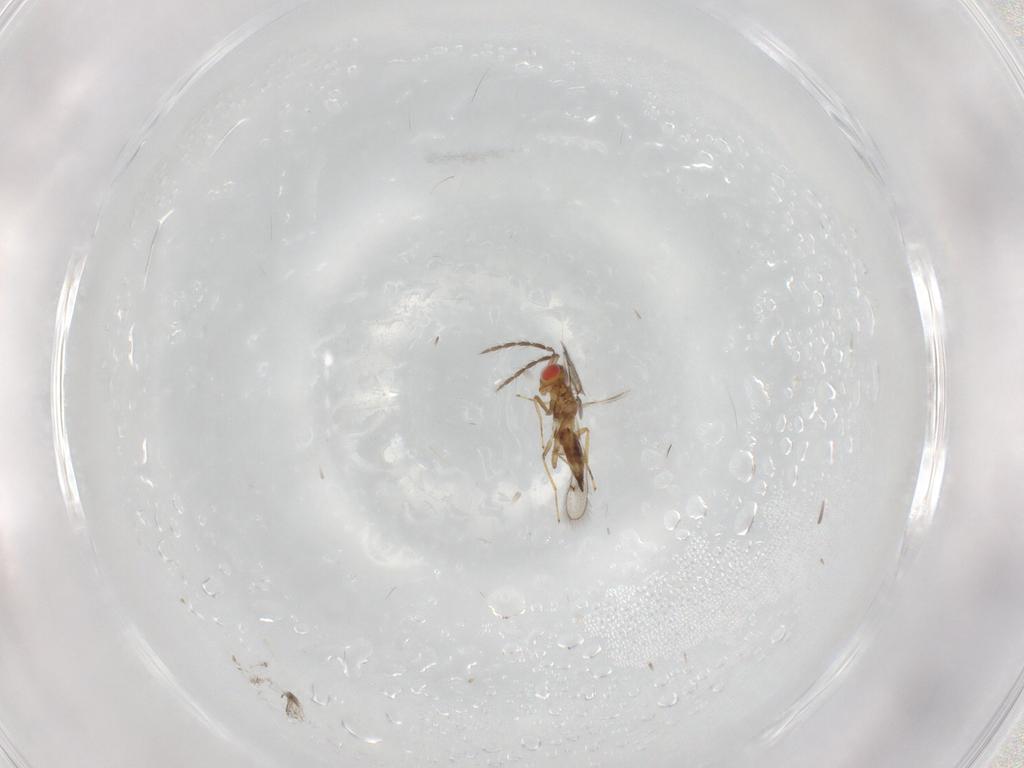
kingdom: Animalia
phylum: Arthropoda
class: Insecta
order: Hymenoptera
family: Eulophidae
